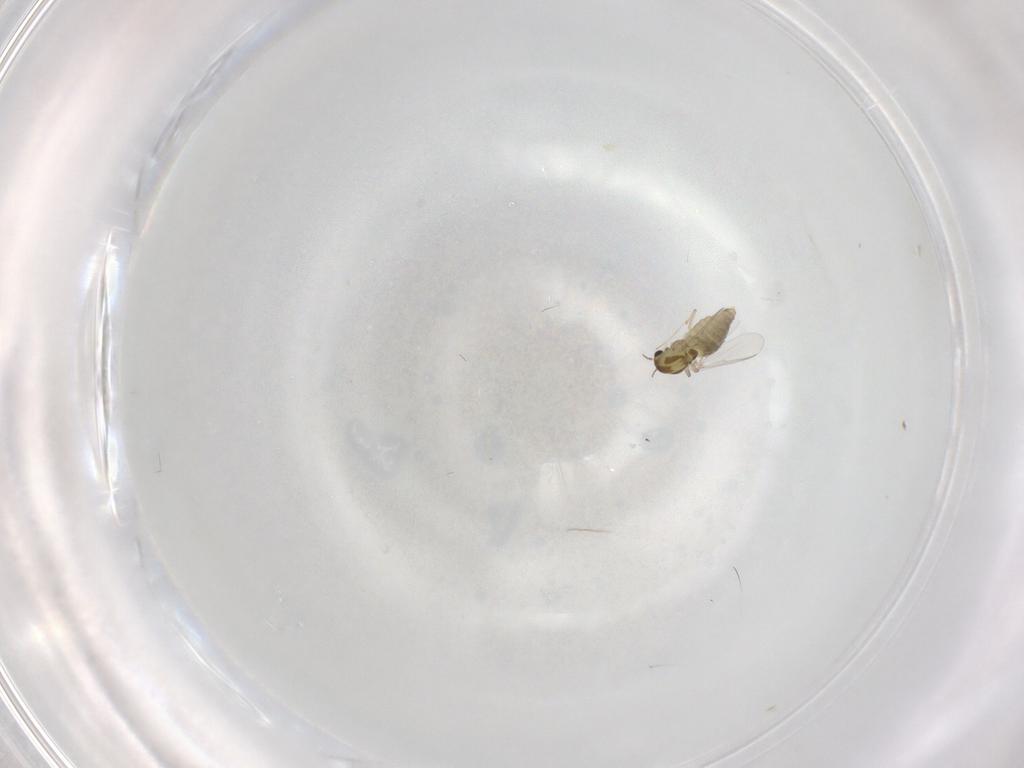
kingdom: Animalia
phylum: Arthropoda
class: Insecta
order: Diptera
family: Chironomidae
